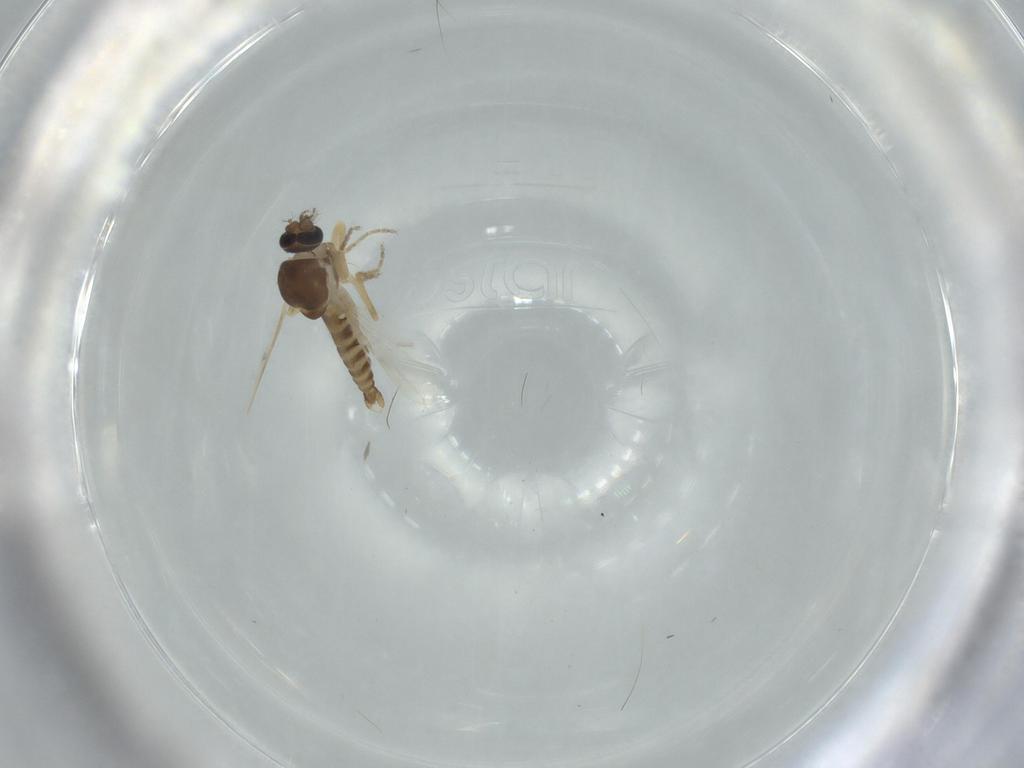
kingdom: Animalia
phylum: Arthropoda
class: Insecta
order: Diptera
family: Ceratopogonidae
